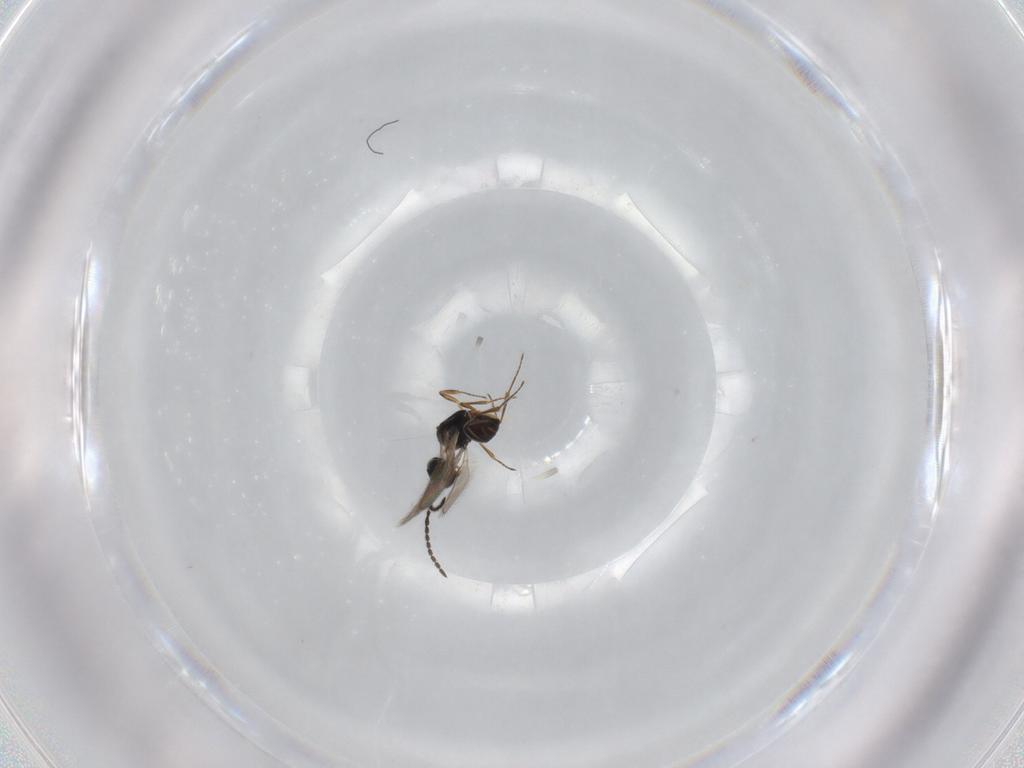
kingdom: Animalia
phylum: Arthropoda
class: Insecta
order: Hymenoptera
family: Scelionidae
